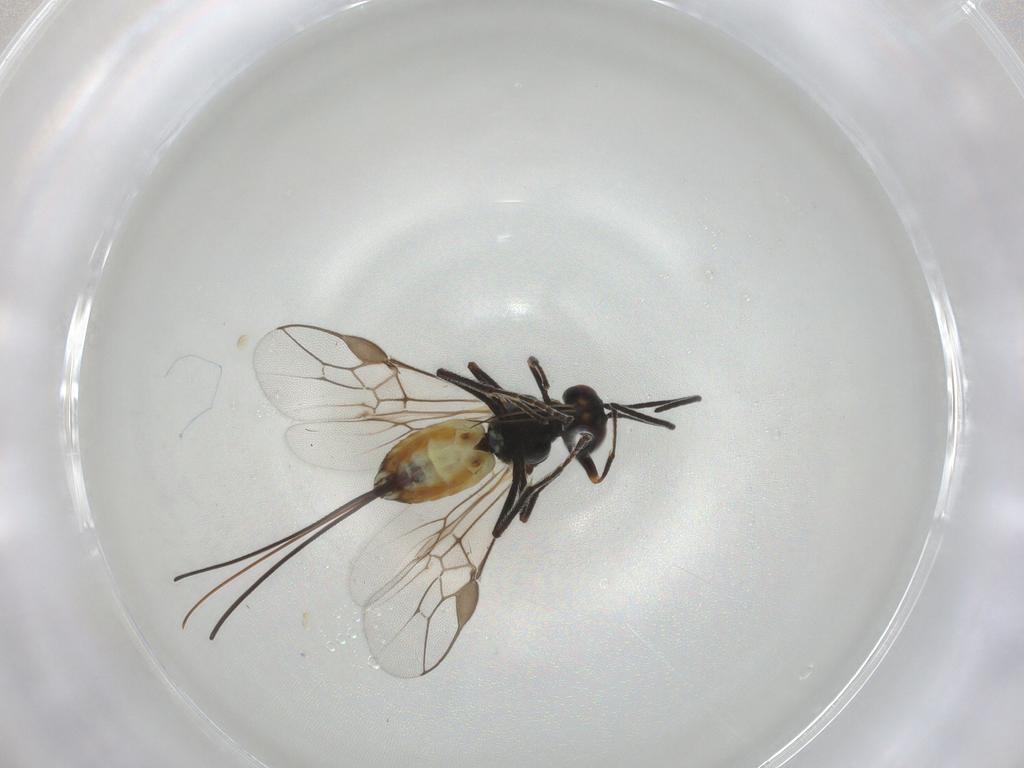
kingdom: Animalia
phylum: Arthropoda
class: Insecta
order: Hymenoptera
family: Braconidae
